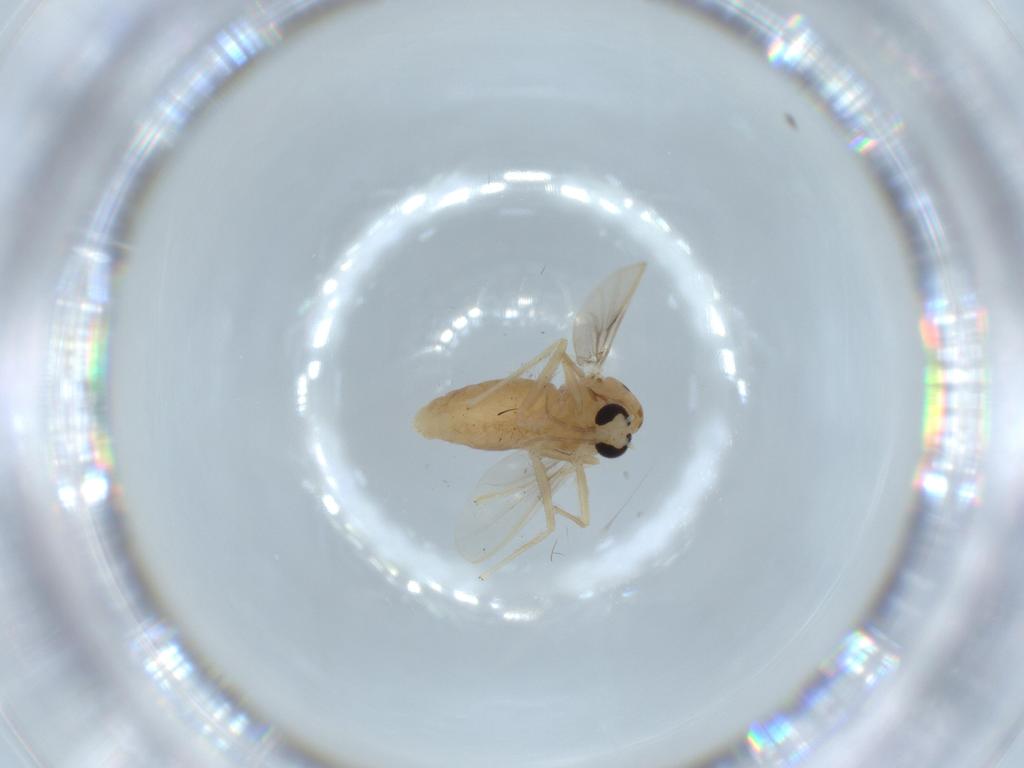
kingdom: Animalia
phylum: Arthropoda
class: Insecta
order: Diptera
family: Chironomidae
